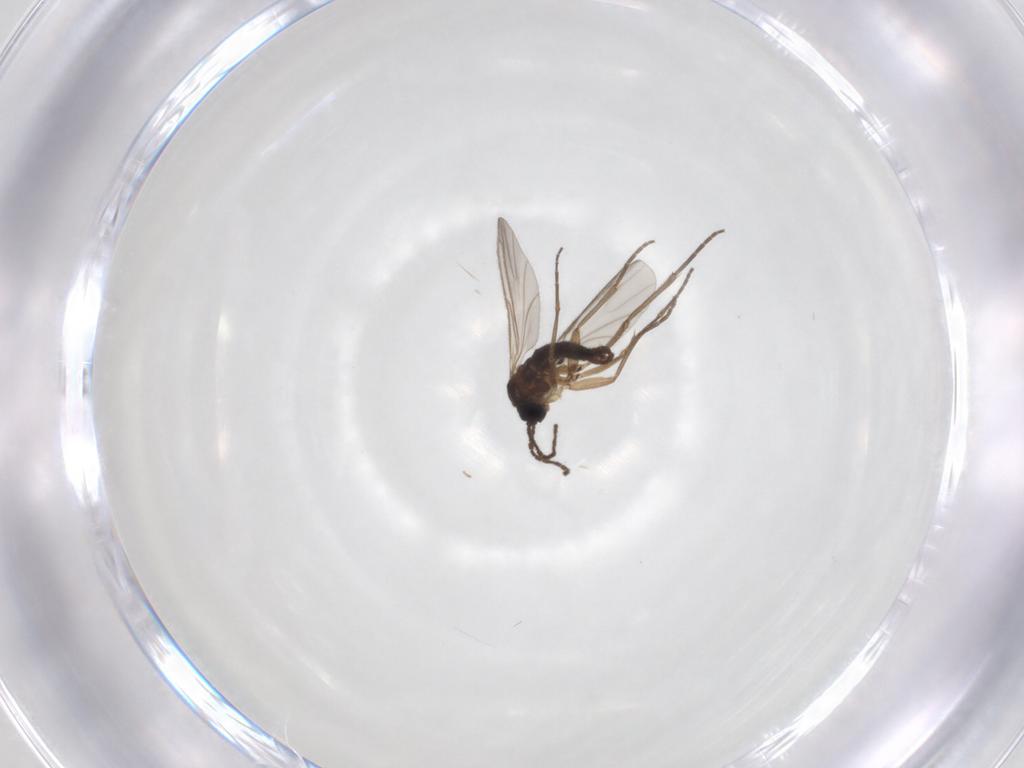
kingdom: Animalia
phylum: Arthropoda
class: Insecta
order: Diptera
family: Sciaridae
